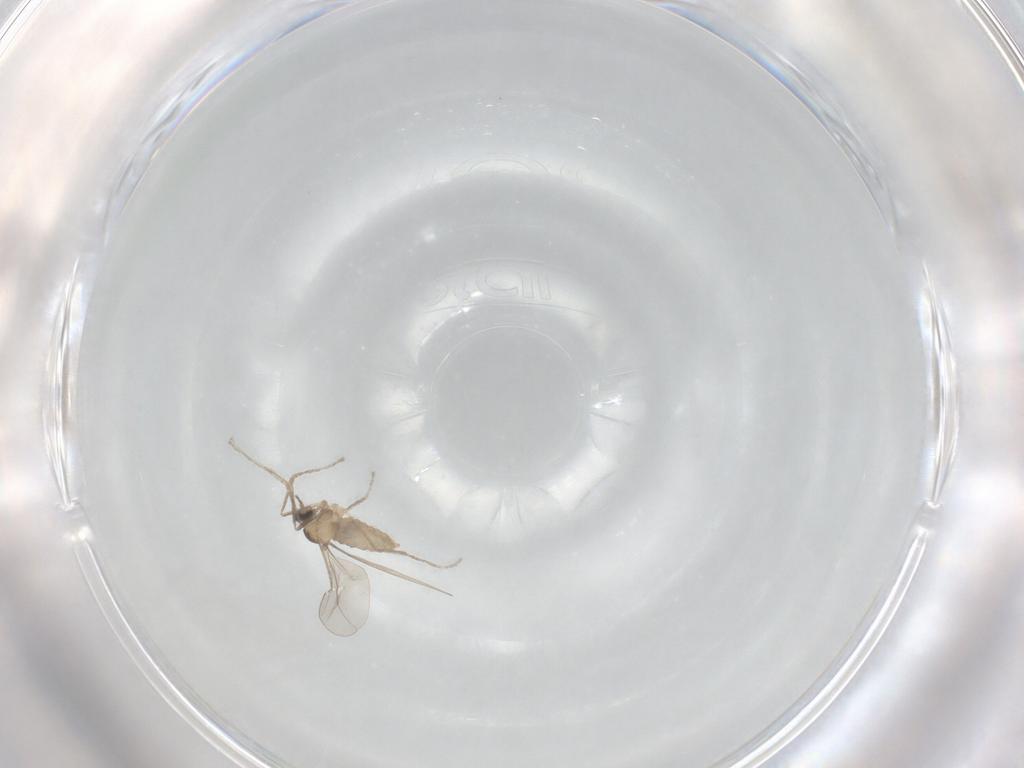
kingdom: Animalia
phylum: Arthropoda
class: Insecta
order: Diptera
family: Cecidomyiidae
